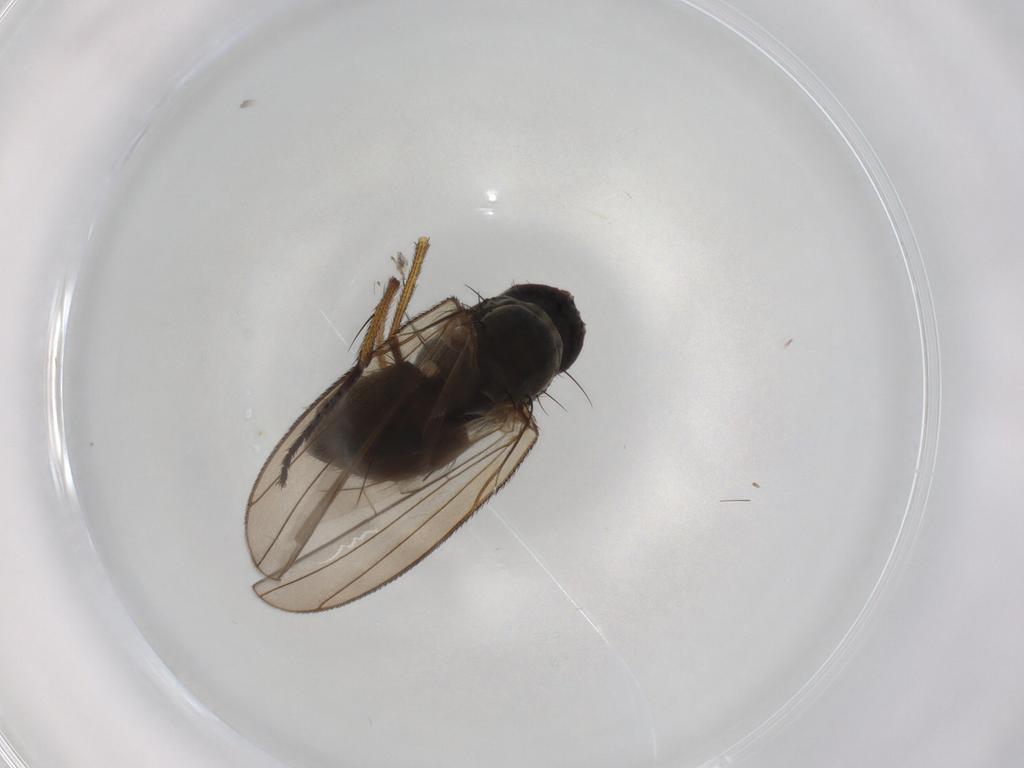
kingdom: Animalia
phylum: Arthropoda
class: Insecta
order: Diptera
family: Muscidae
